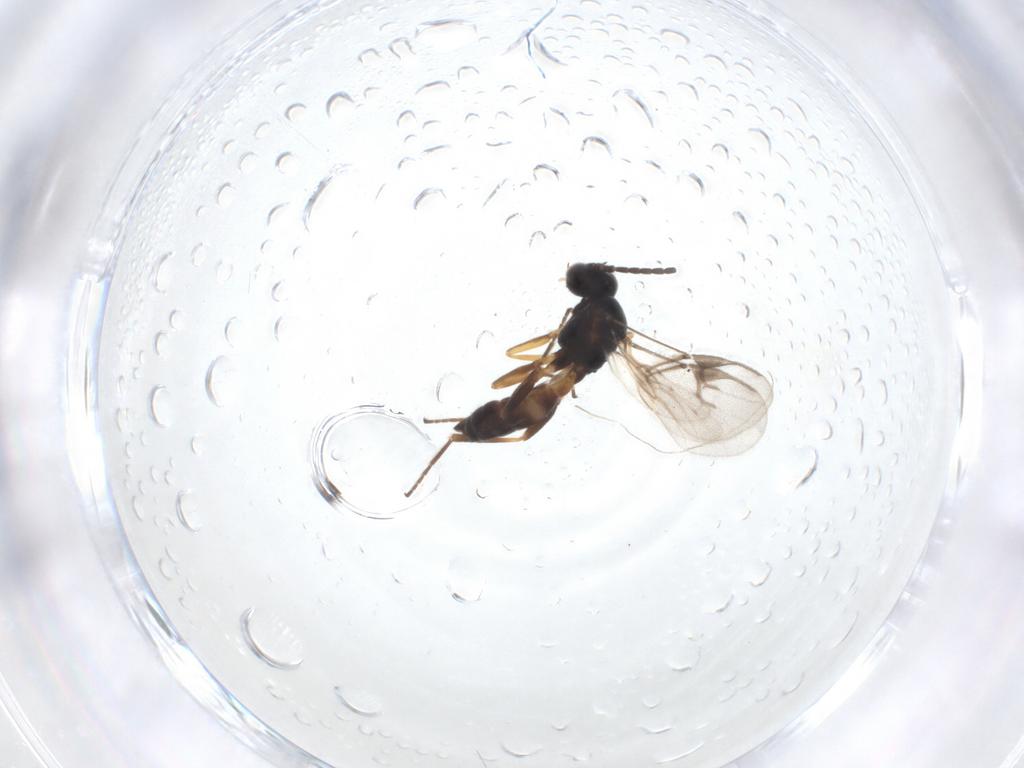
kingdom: Animalia
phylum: Arthropoda
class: Insecta
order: Hymenoptera
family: Braconidae
